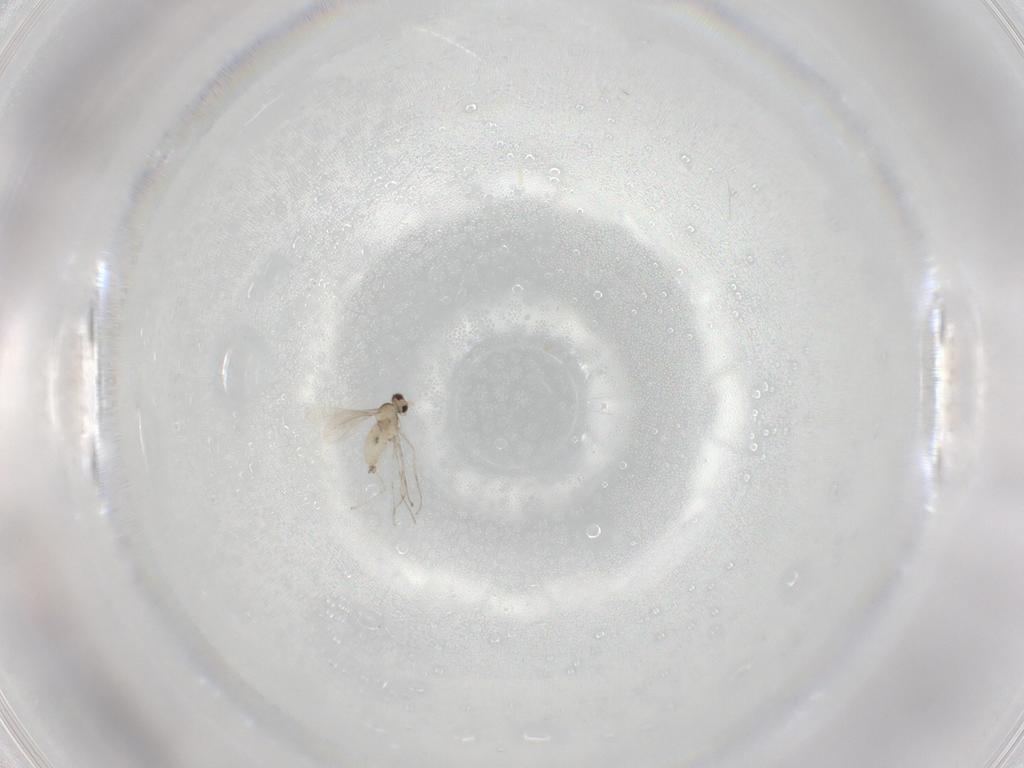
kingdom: Animalia
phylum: Arthropoda
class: Insecta
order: Diptera
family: Cecidomyiidae
